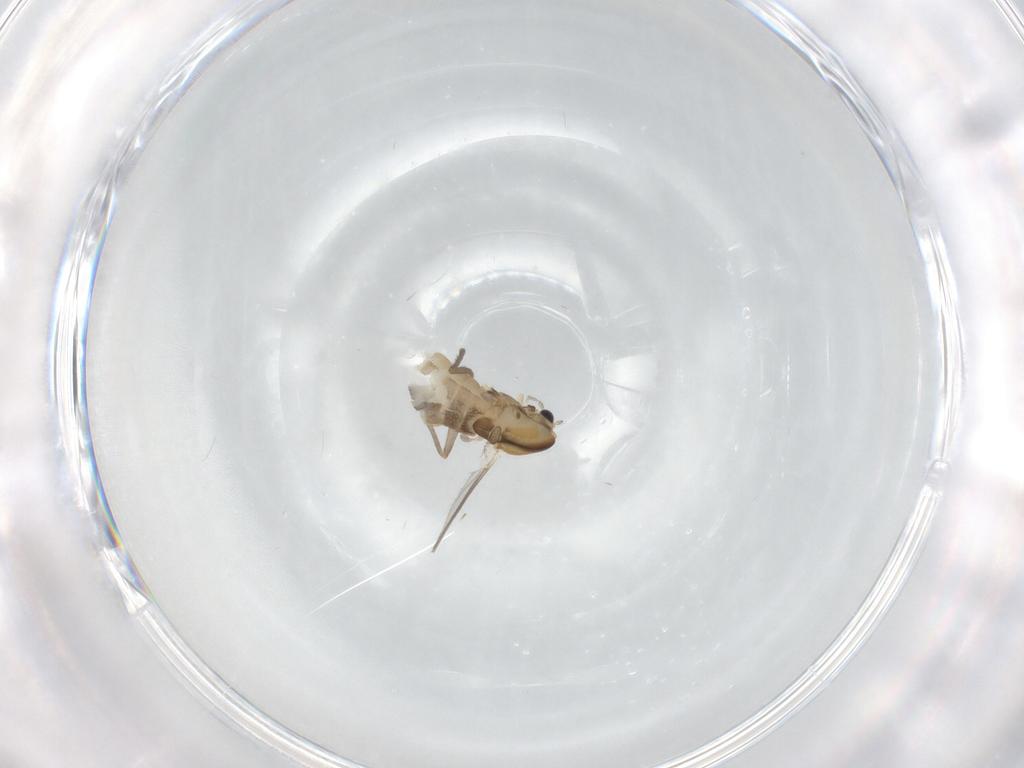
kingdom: Animalia
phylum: Arthropoda
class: Insecta
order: Diptera
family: Chironomidae
